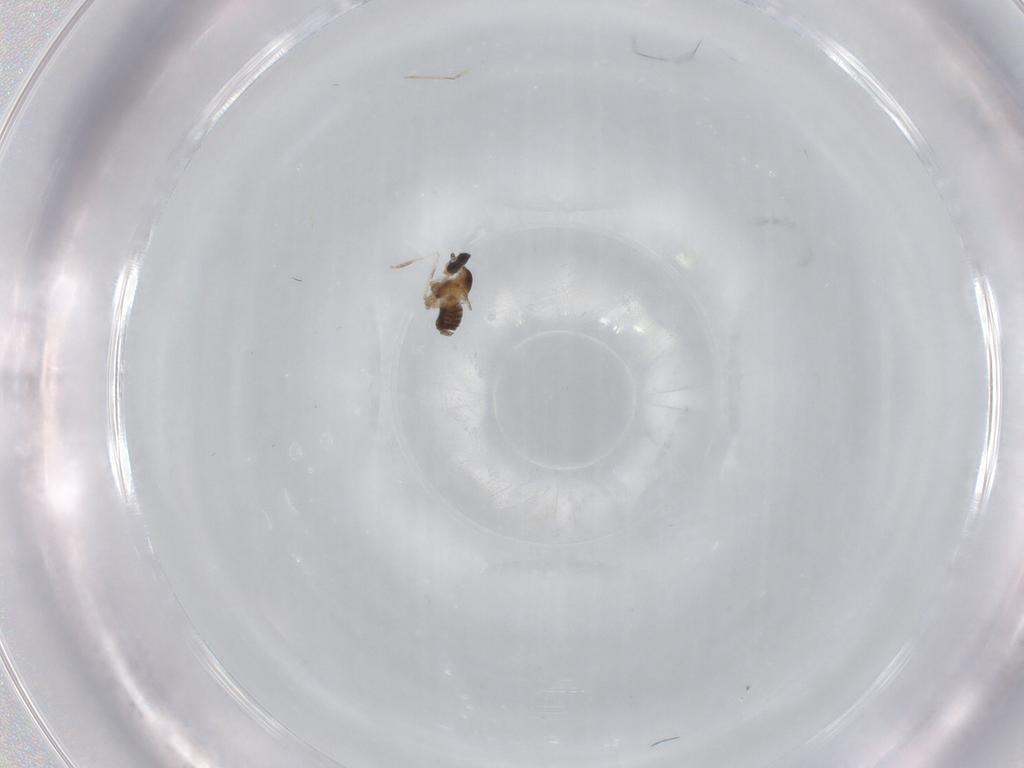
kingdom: Animalia
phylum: Arthropoda
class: Insecta
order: Diptera
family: Cecidomyiidae
